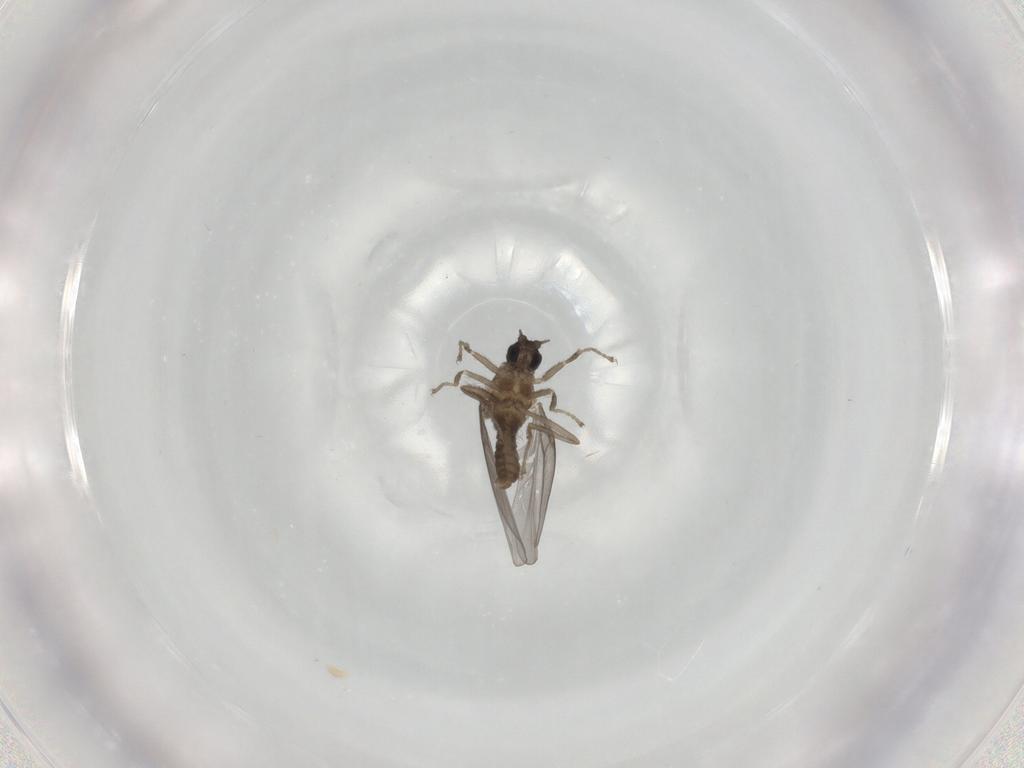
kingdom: Animalia
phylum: Arthropoda
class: Insecta
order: Diptera
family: Cecidomyiidae
